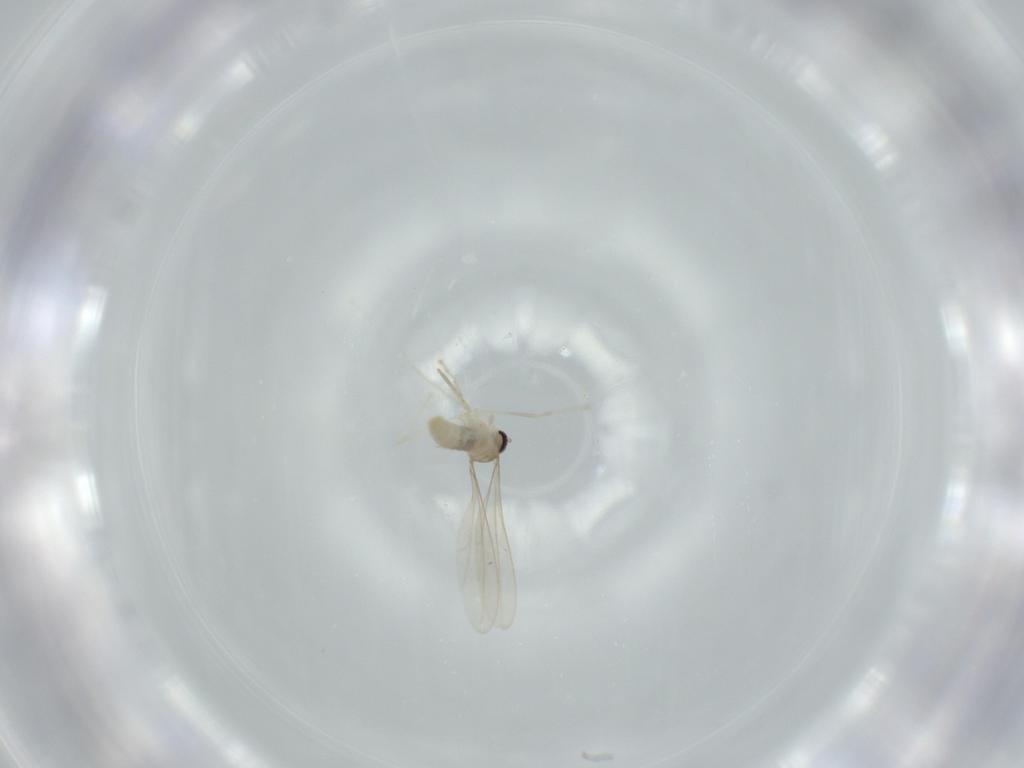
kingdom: Animalia
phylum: Arthropoda
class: Insecta
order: Diptera
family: Cecidomyiidae
